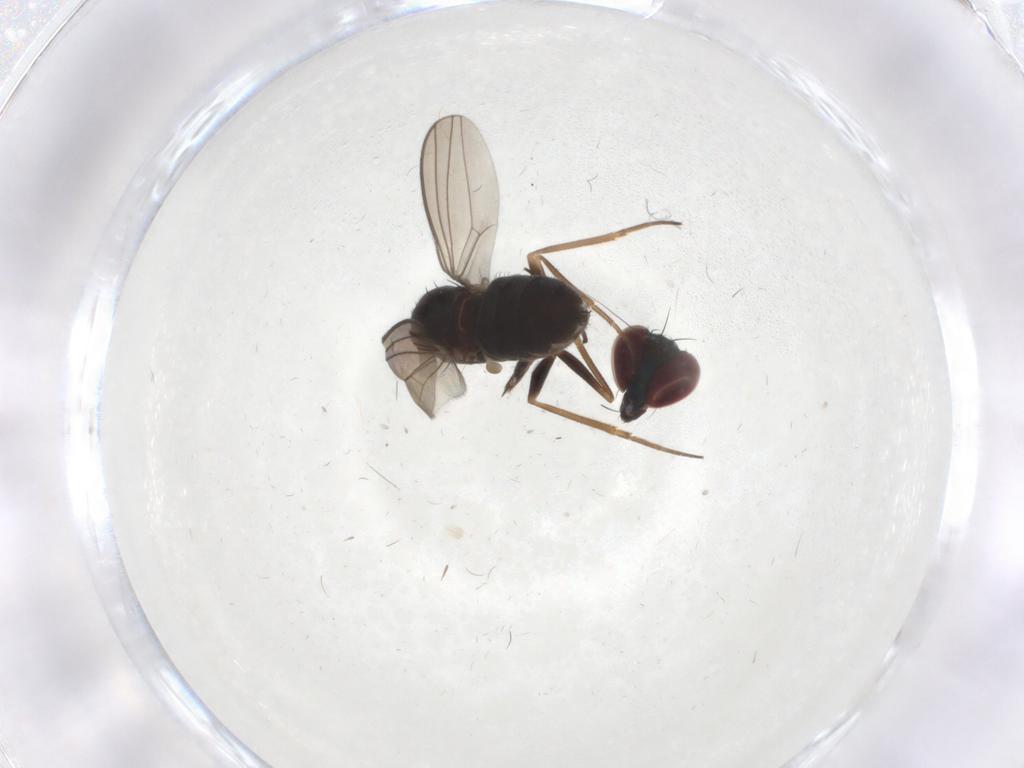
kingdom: Animalia
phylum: Arthropoda
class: Insecta
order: Diptera
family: Dolichopodidae
